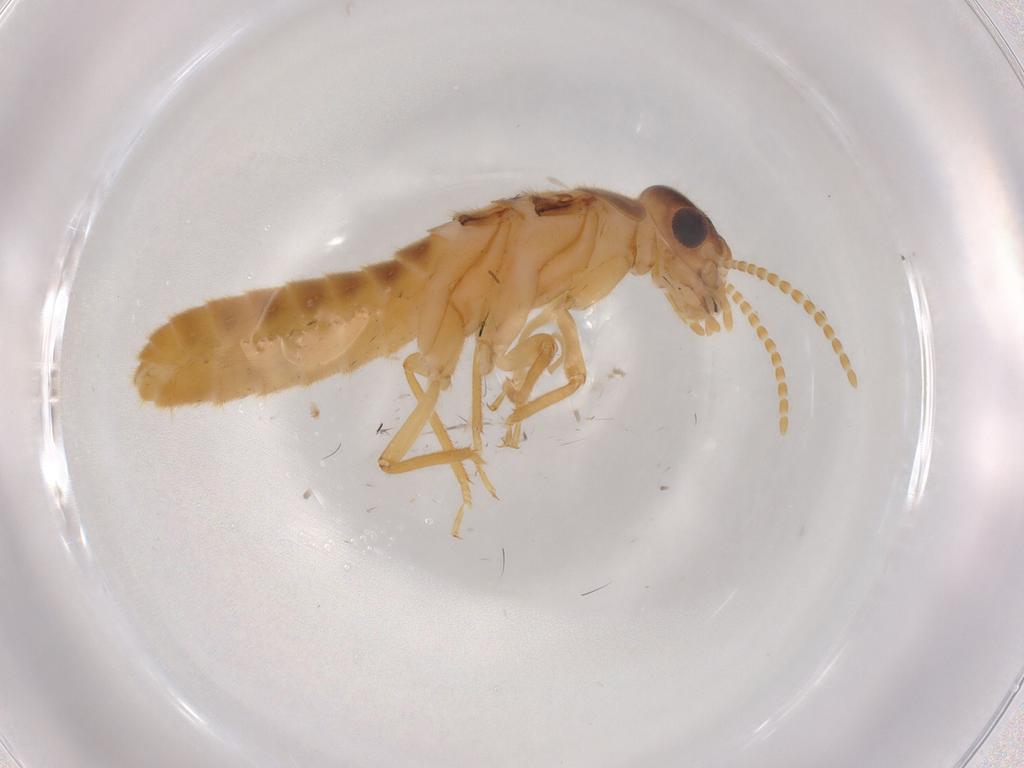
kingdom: Animalia
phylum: Arthropoda
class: Insecta
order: Blattodea
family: Termitidae
